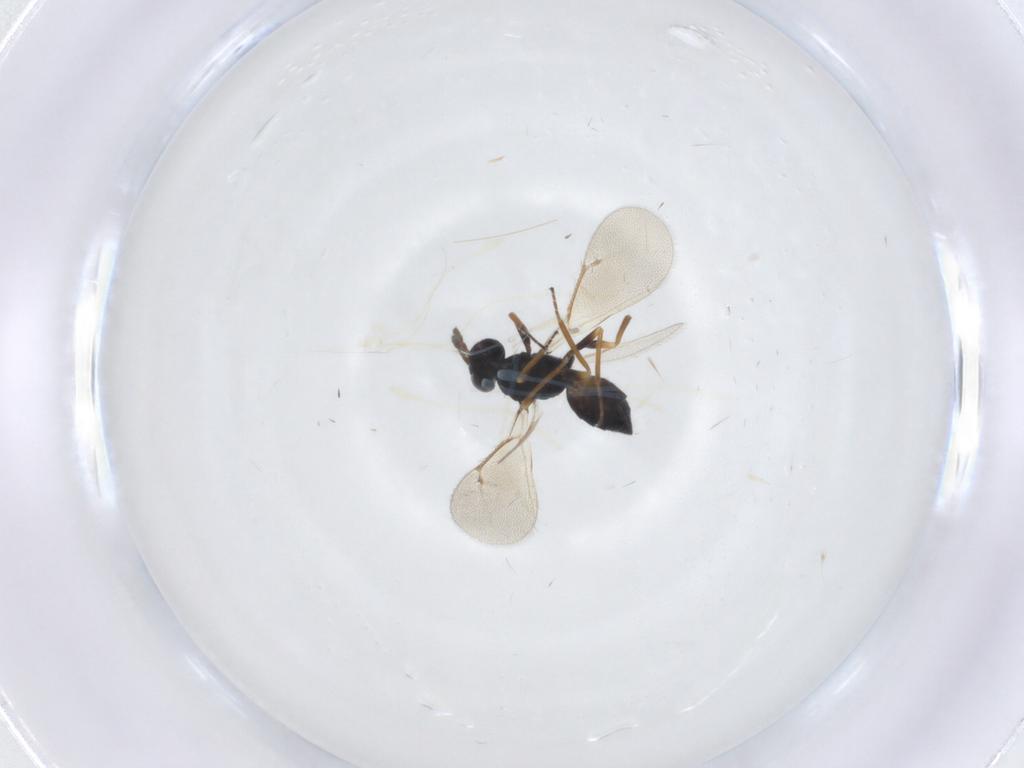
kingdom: Animalia
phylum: Arthropoda
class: Insecta
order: Hymenoptera
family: Eulophidae
